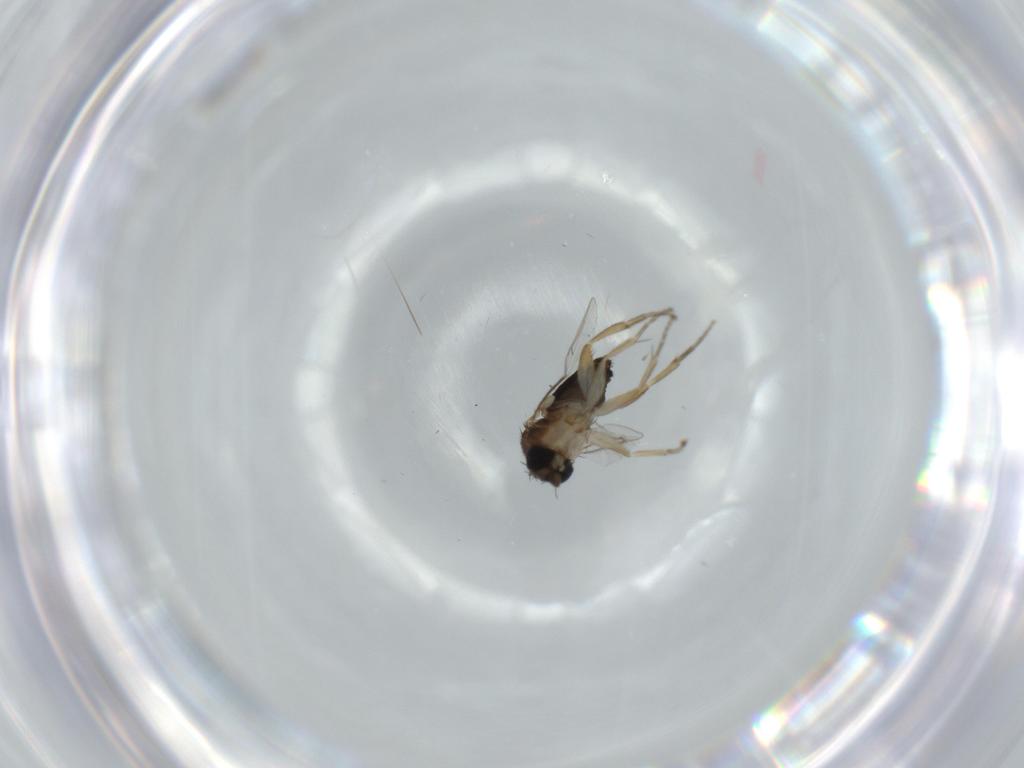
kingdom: Animalia
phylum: Arthropoda
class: Insecta
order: Diptera
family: Phoridae
